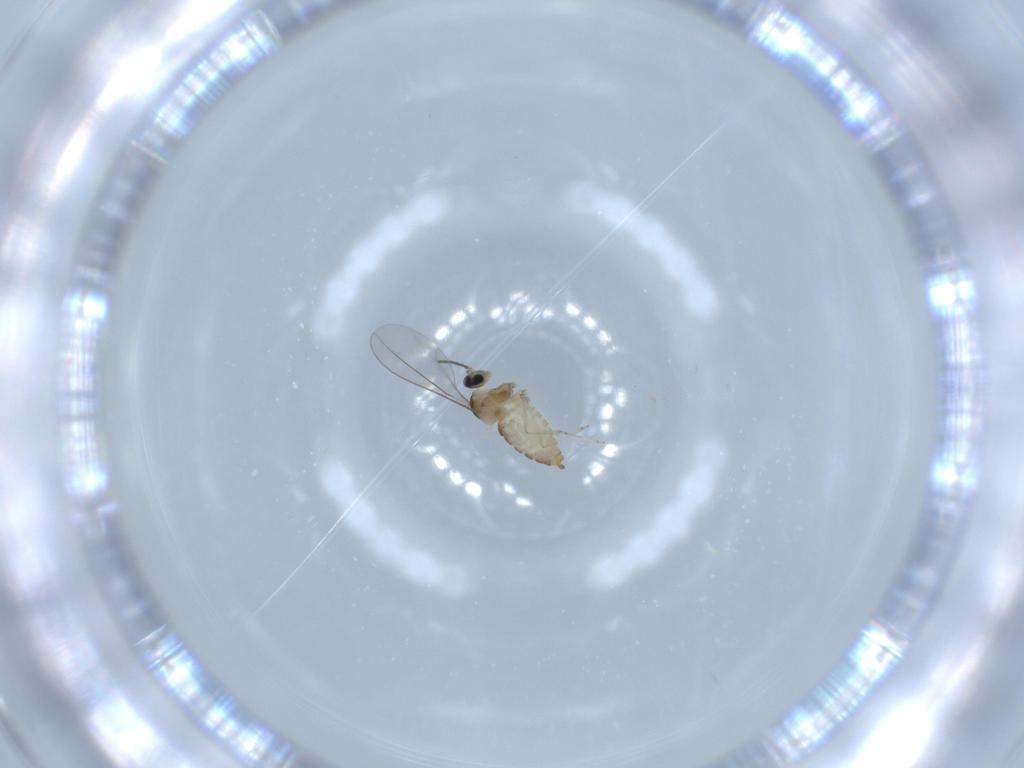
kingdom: Animalia
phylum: Arthropoda
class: Insecta
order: Diptera
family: Cecidomyiidae
